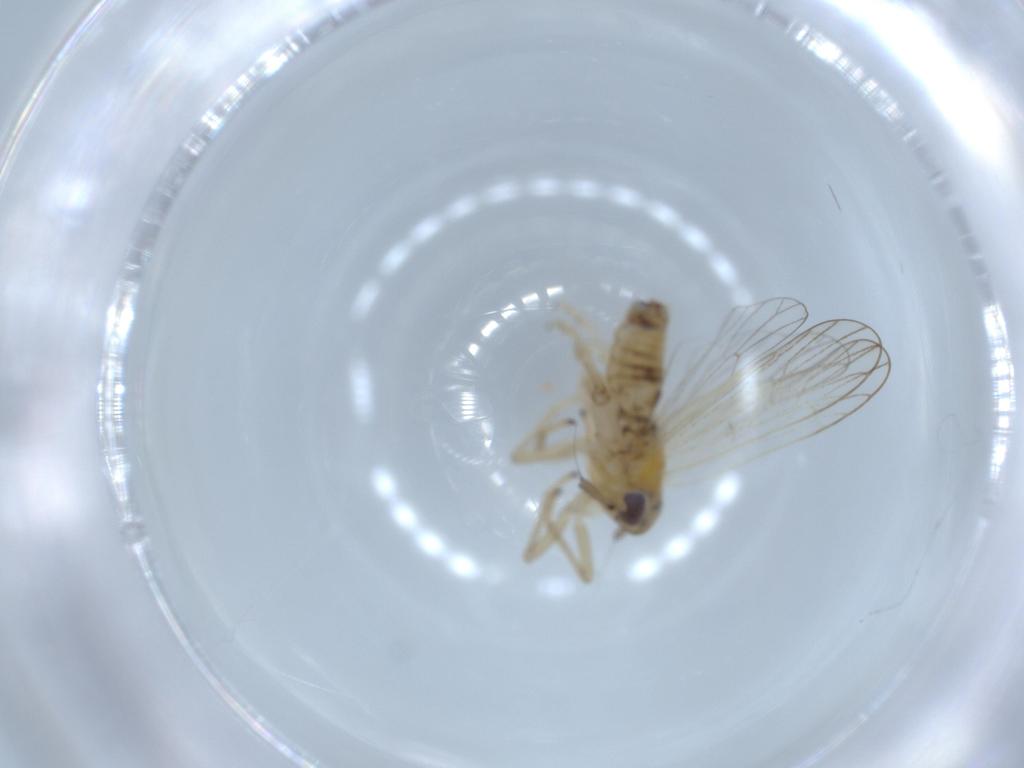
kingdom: Animalia
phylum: Arthropoda
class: Insecta
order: Hemiptera
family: Delphacidae
